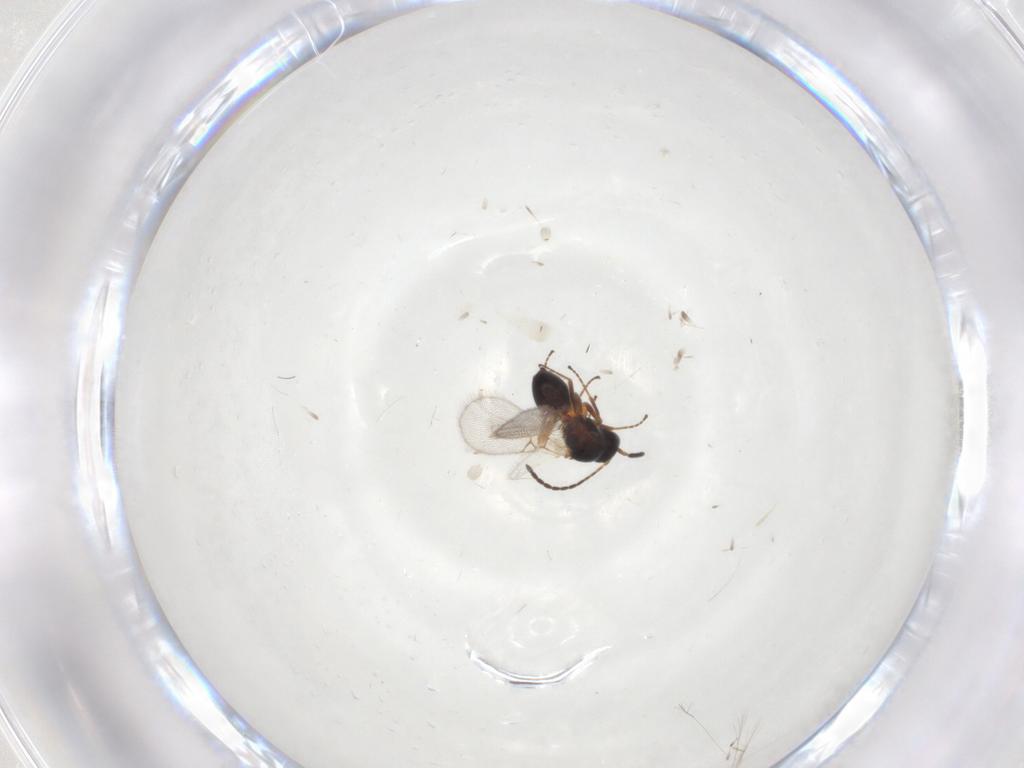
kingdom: Animalia
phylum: Arthropoda
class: Insecta
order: Hymenoptera
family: Figitidae
